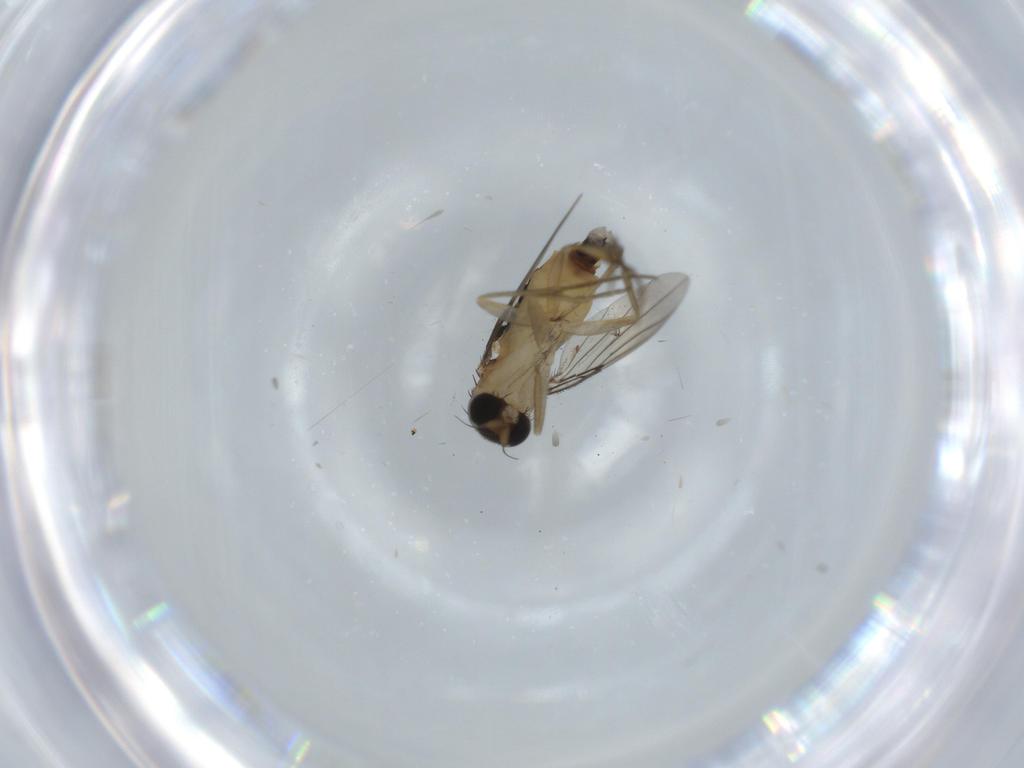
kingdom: Animalia
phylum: Arthropoda
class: Insecta
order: Diptera
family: Phoridae
